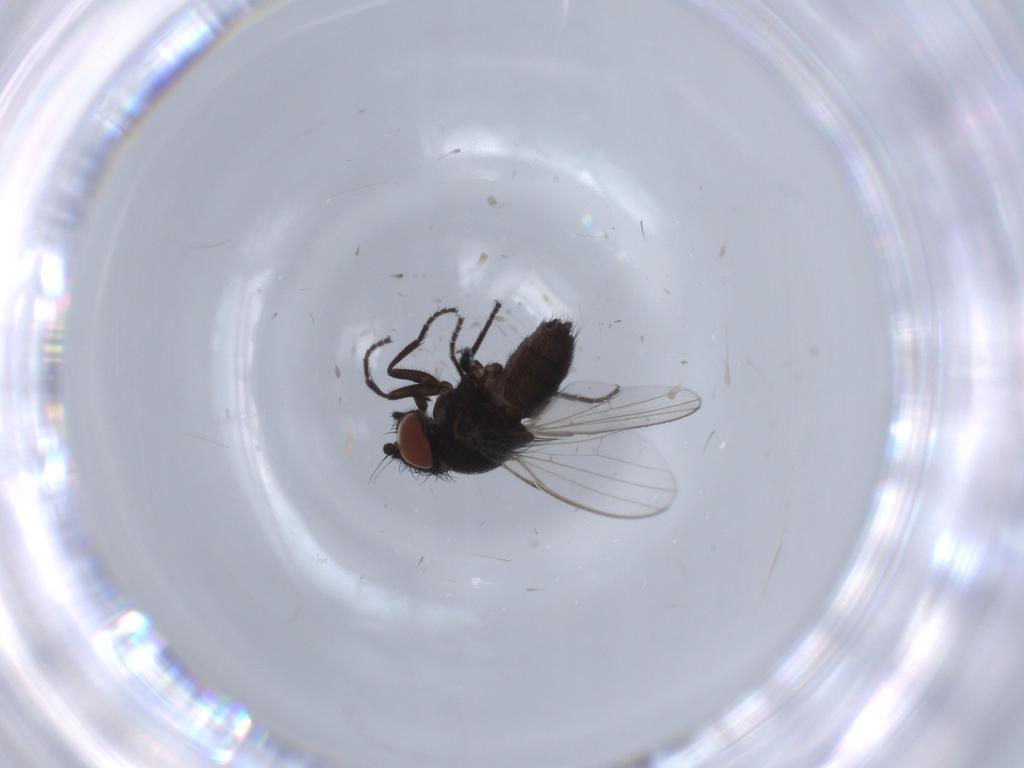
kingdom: Animalia
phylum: Arthropoda
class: Insecta
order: Diptera
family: Milichiidae
